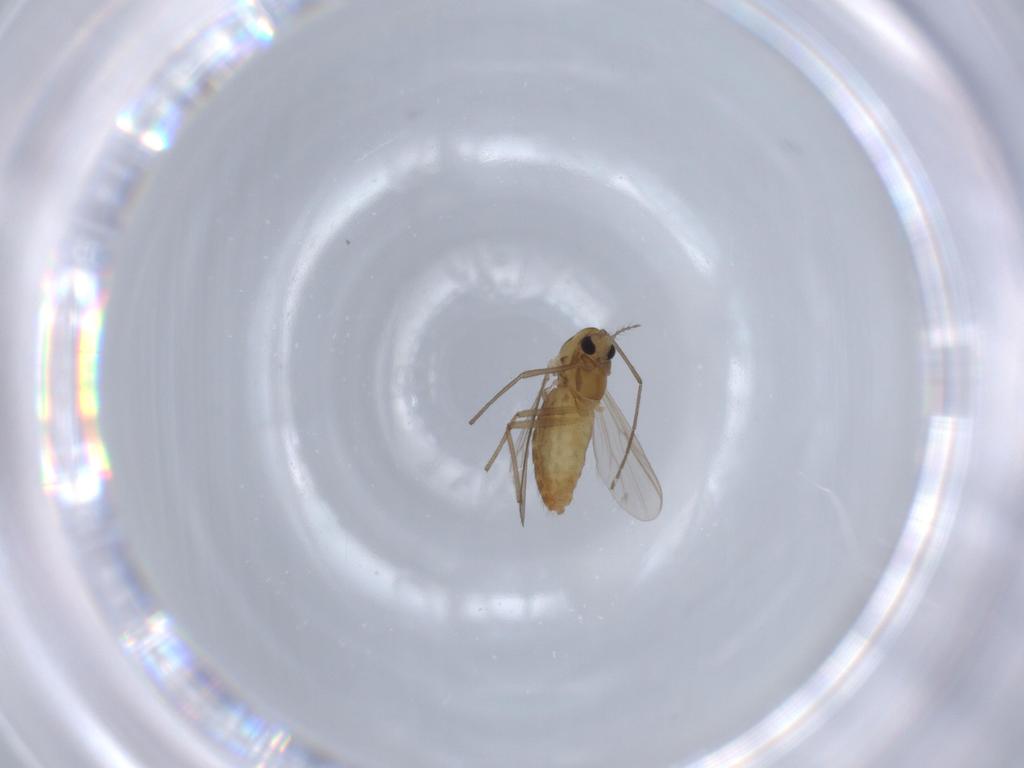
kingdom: Animalia
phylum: Arthropoda
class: Insecta
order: Diptera
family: Chironomidae
